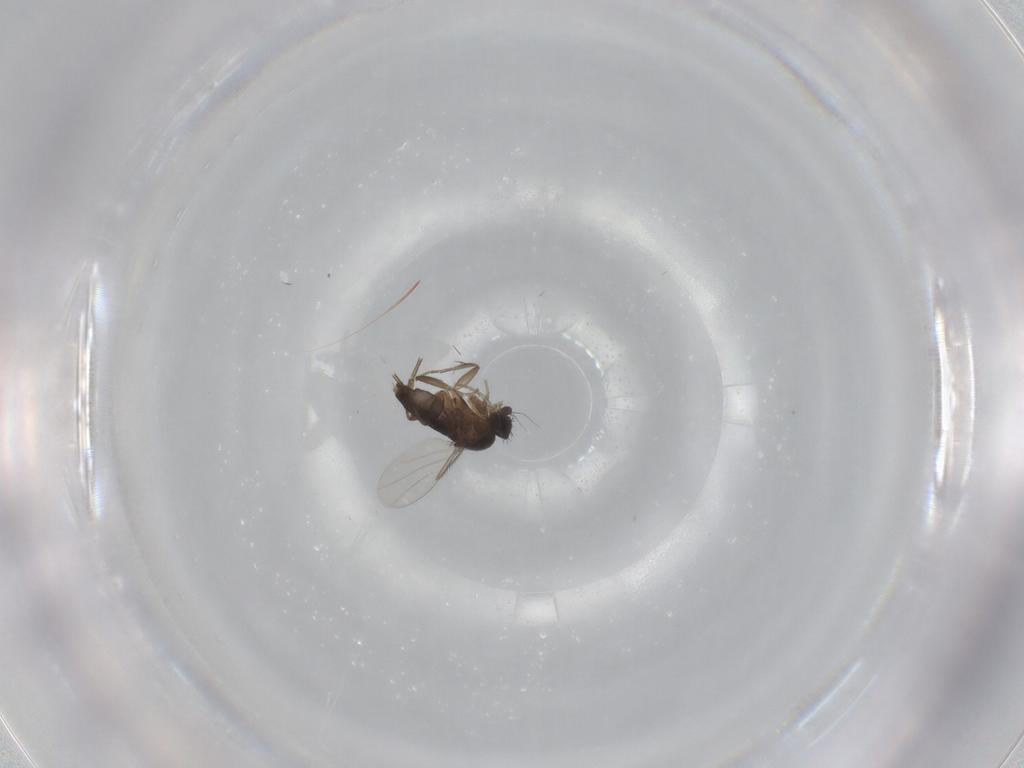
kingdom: Animalia
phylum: Arthropoda
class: Insecta
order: Diptera
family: Phoridae
